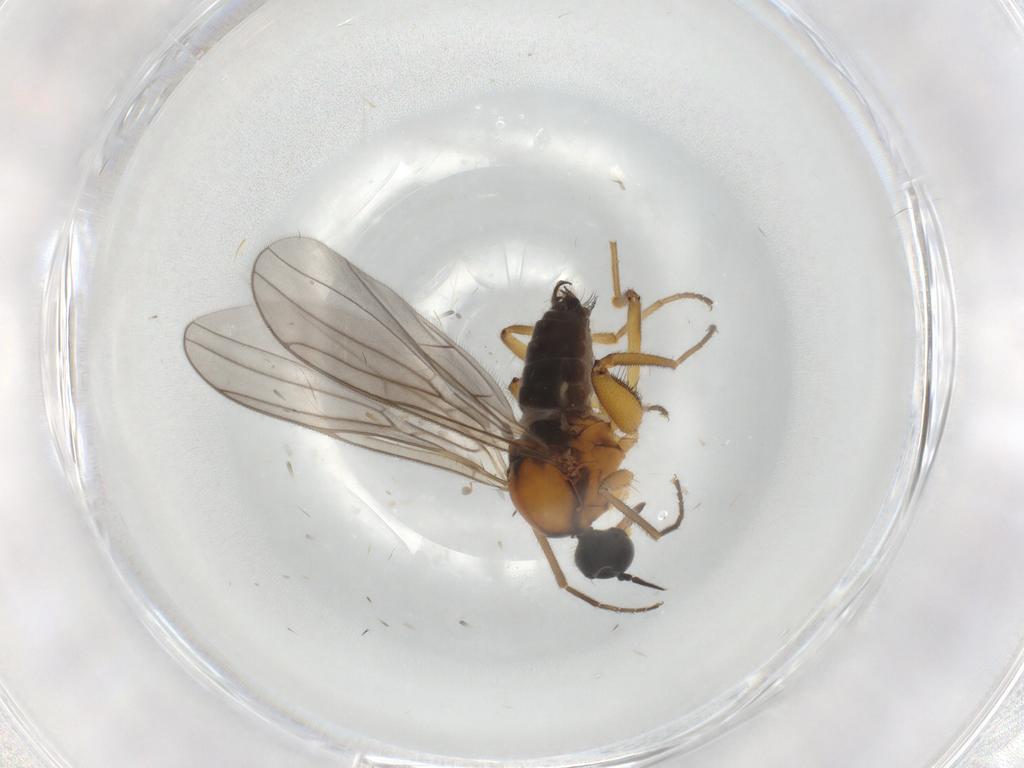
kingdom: Animalia
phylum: Arthropoda
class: Insecta
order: Diptera
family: Hybotidae
